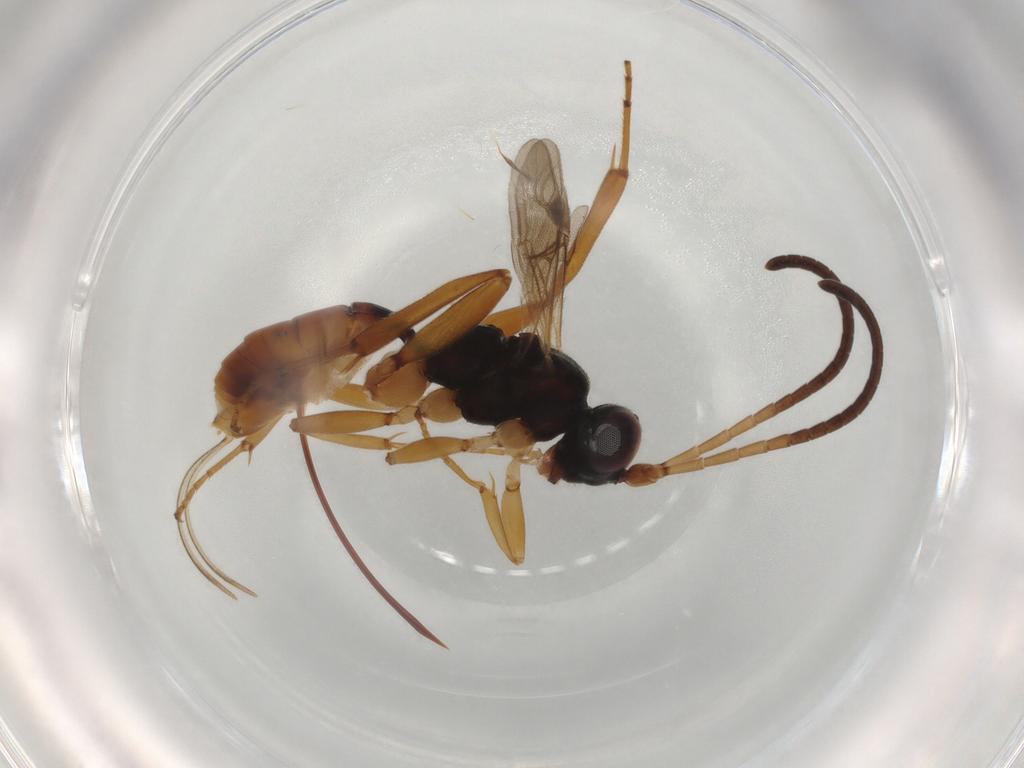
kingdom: Animalia
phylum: Arthropoda
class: Insecta
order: Hymenoptera
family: Ichneumonidae
